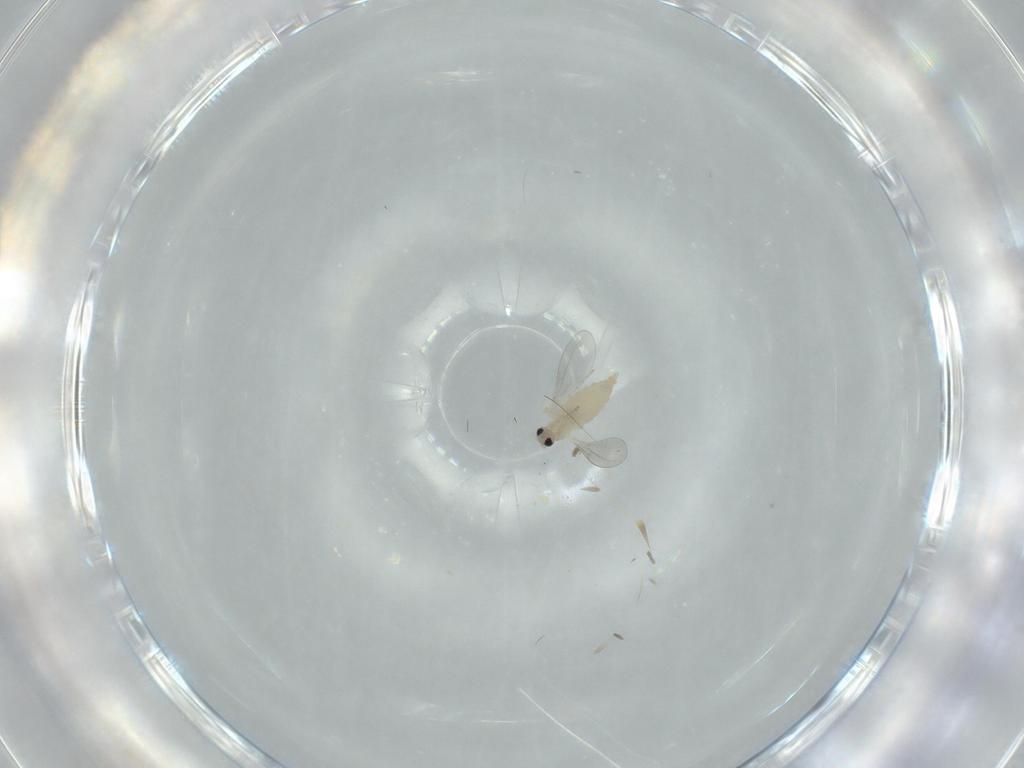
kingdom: Animalia
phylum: Arthropoda
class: Insecta
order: Diptera
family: Cecidomyiidae
